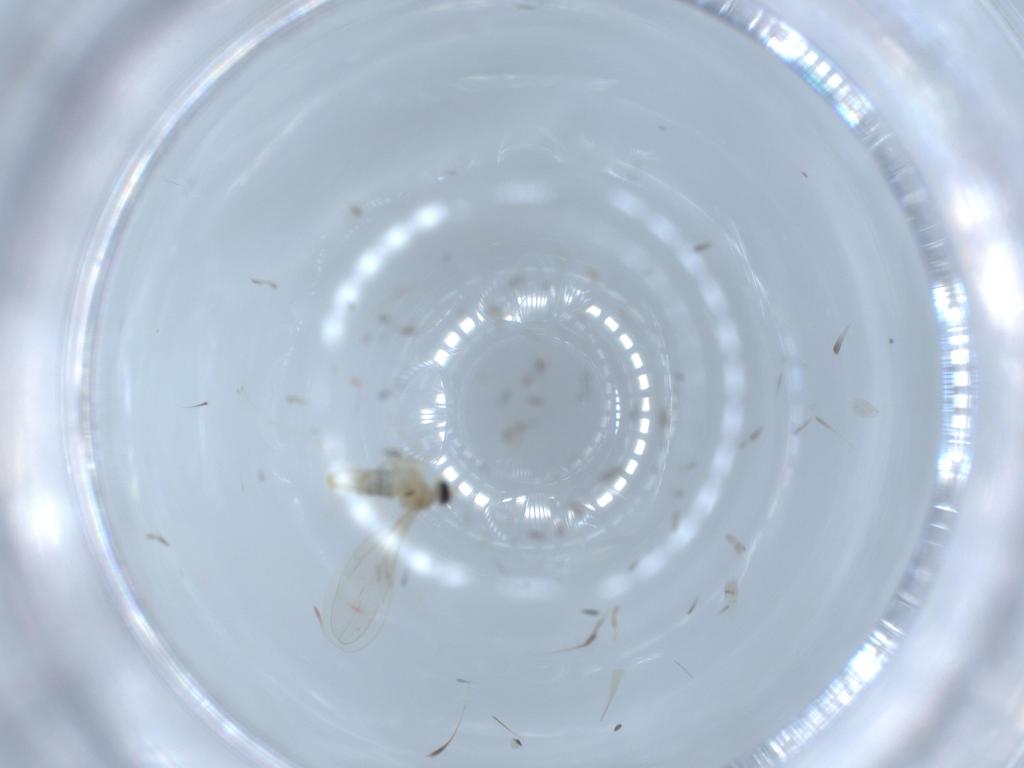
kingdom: Animalia
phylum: Arthropoda
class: Insecta
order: Diptera
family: Cecidomyiidae
